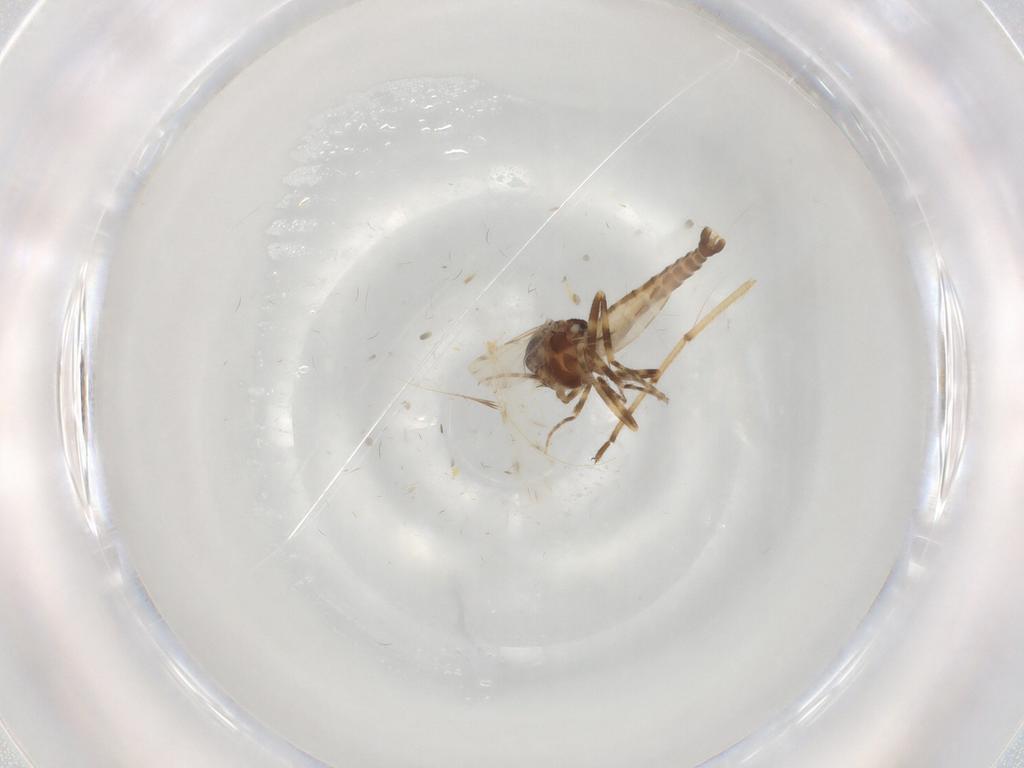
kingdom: Animalia
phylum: Arthropoda
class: Insecta
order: Diptera
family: Ceratopogonidae
